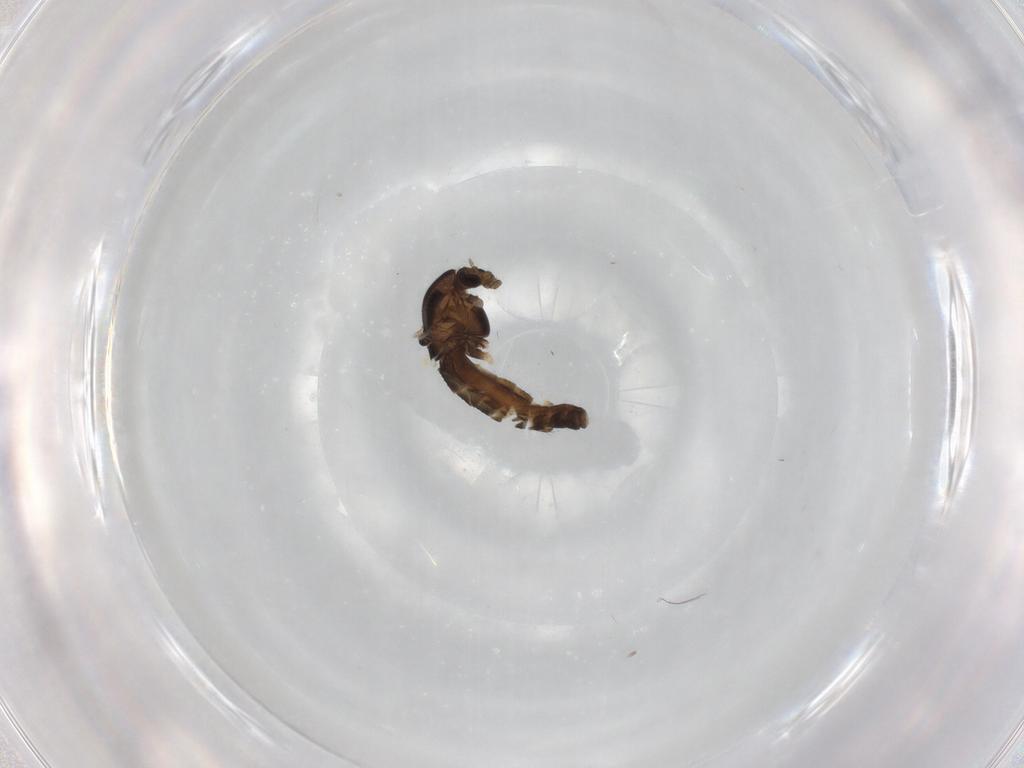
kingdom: Animalia
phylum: Arthropoda
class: Insecta
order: Diptera
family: Chironomidae
